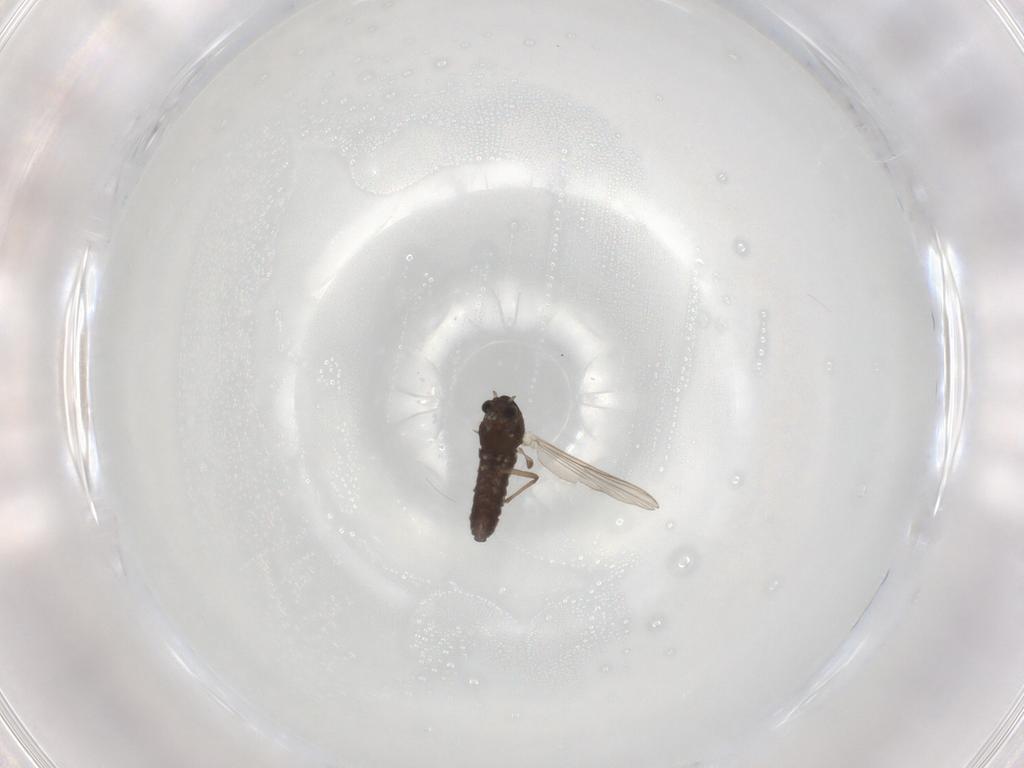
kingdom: Animalia
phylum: Arthropoda
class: Insecta
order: Diptera
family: Chironomidae
